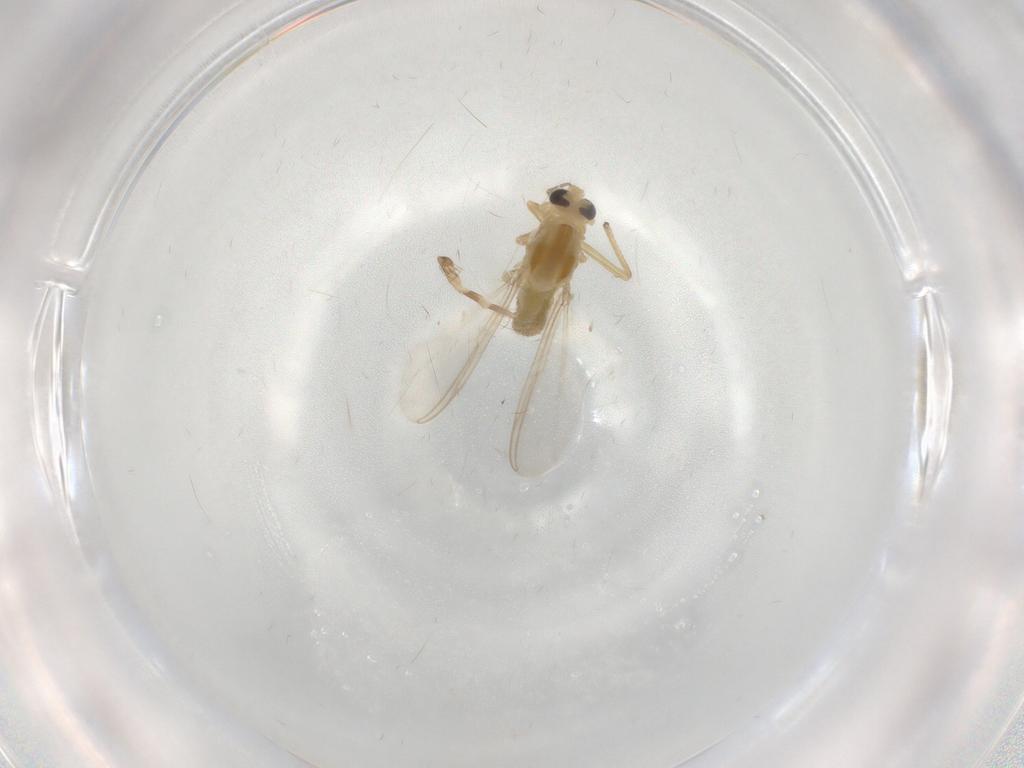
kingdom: Animalia
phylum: Arthropoda
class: Insecta
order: Diptera
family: Chironomidae
